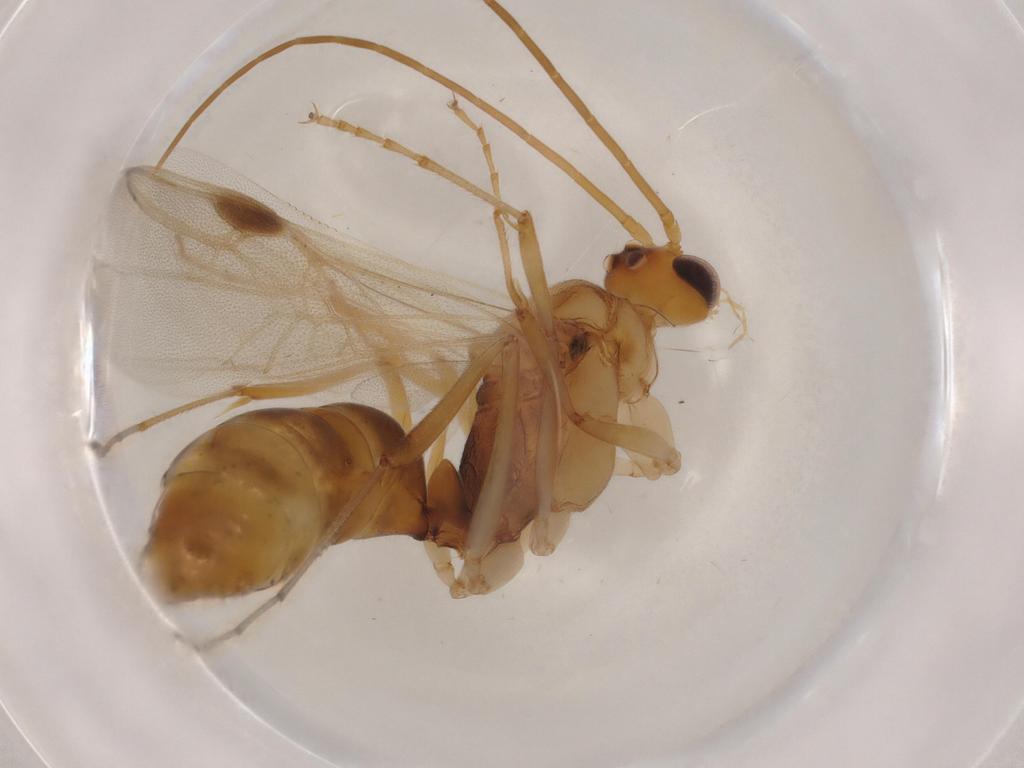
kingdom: Animalia
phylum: Arthropoda
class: Insecta
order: Hymenoptera
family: Formicidae
